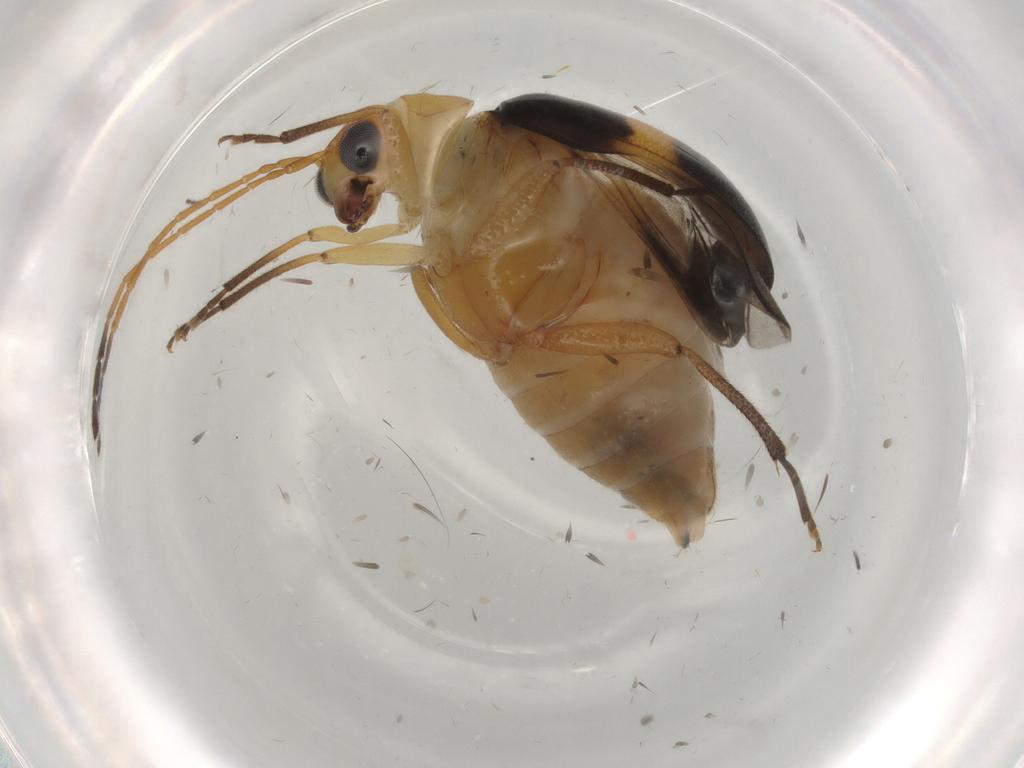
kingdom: Animalia
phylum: Arthropoda
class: Insecta
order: Coleoptera
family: Chrysomelidae
